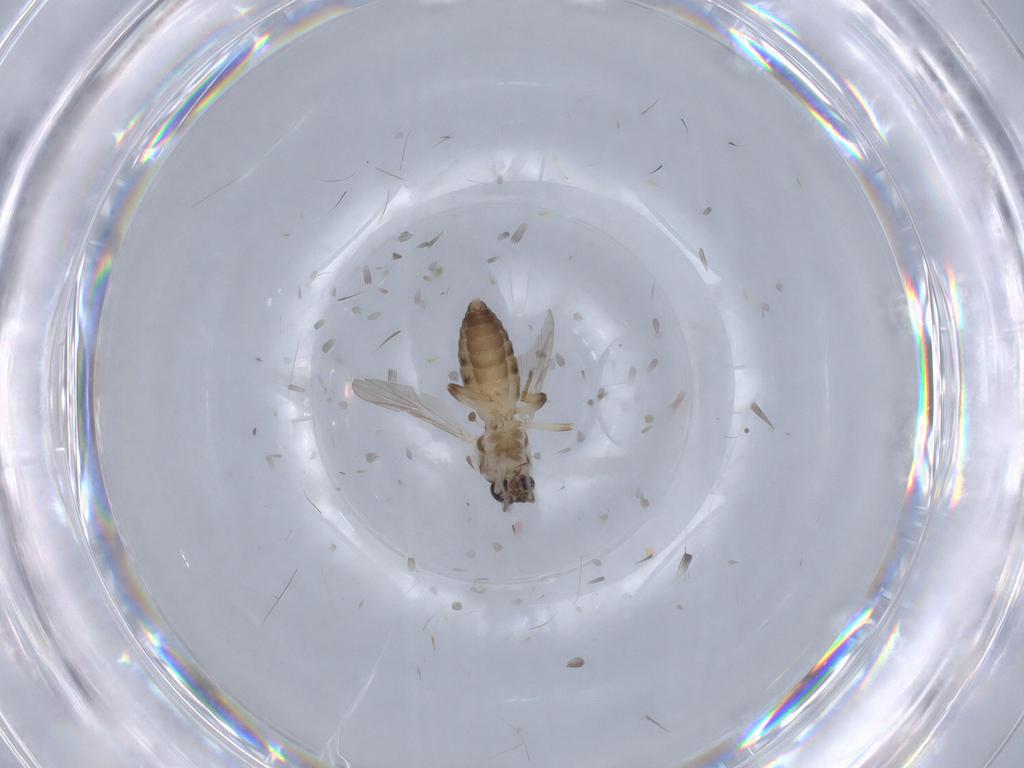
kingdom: Animalia
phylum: Arthropoda
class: Insecta
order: Diptera
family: Ceratopogonidae
